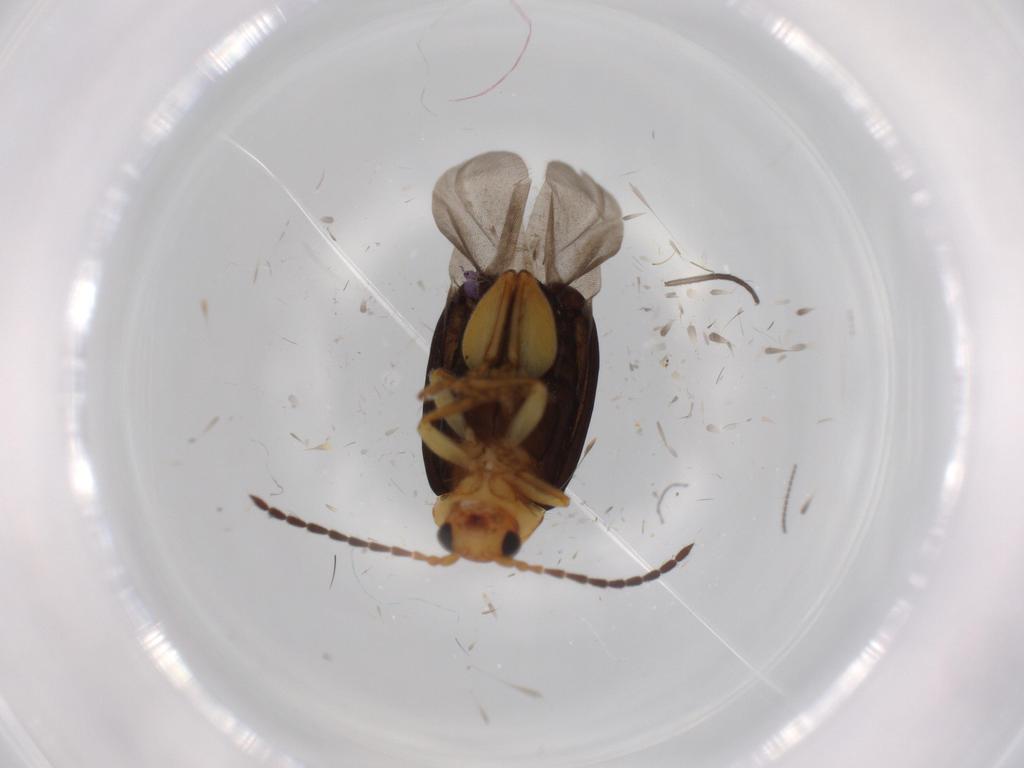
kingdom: Animalia
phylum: Arthropoda
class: Insecta
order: Coleoptera
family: Chrysomelidae
